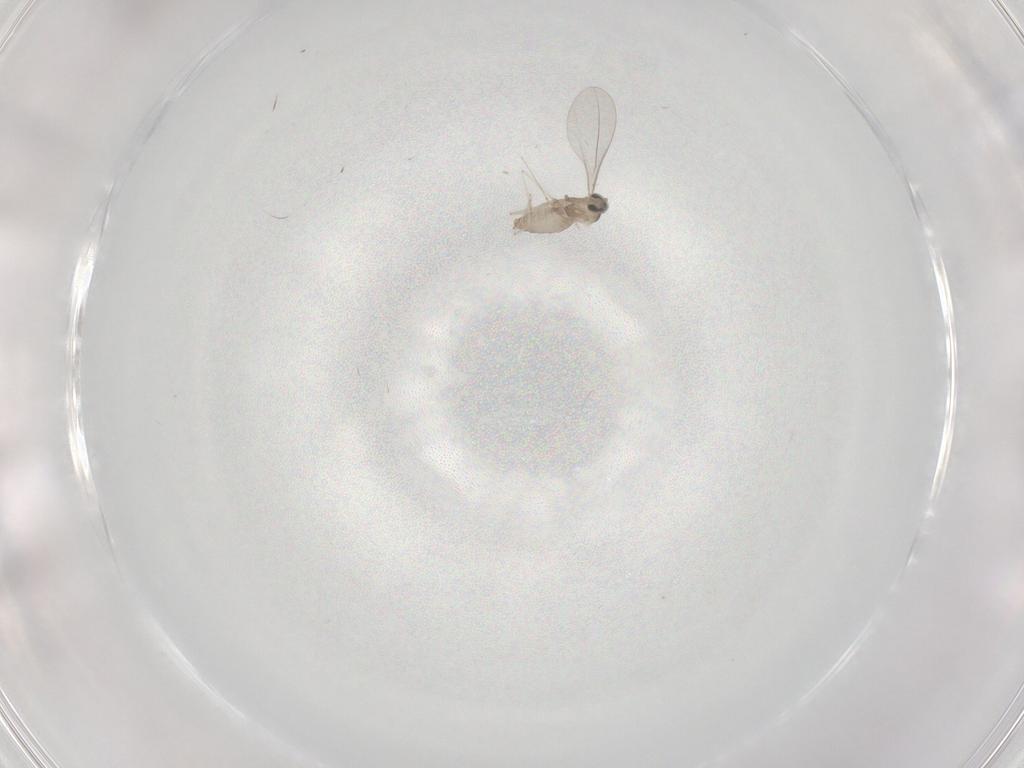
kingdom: Animalia
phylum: Arthropoda
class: Insecta
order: Diptera
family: Cecidomyiidae
